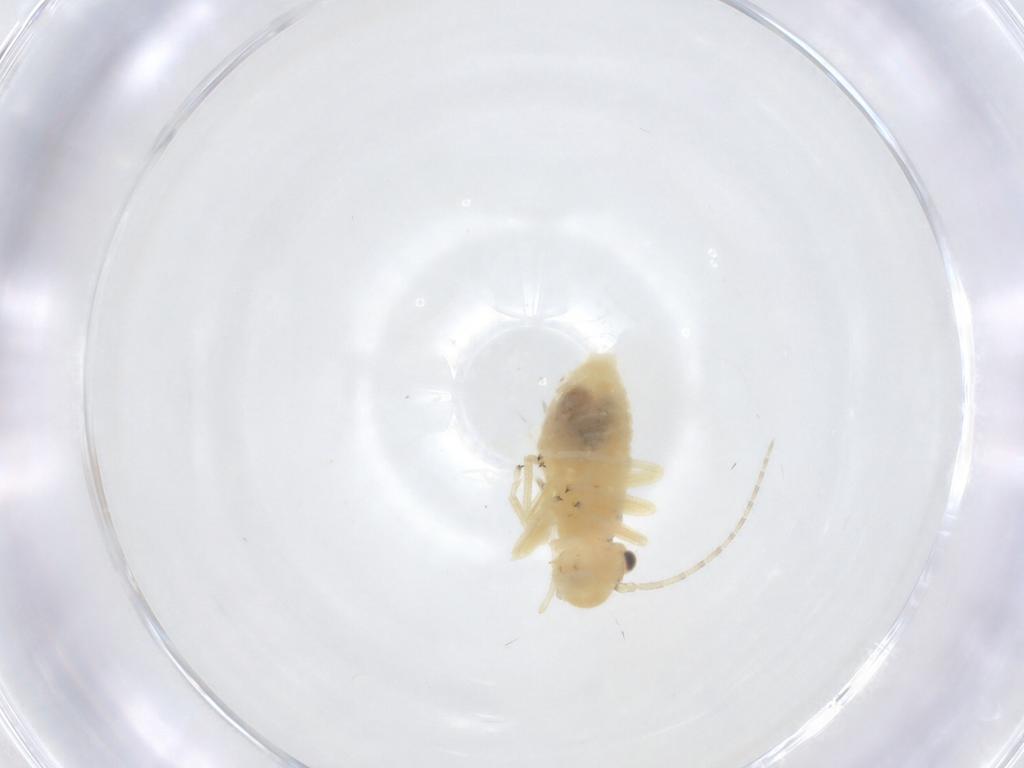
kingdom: Animalia
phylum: Arthropoda
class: Insecta
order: Psocodea
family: Amphipsocidae
